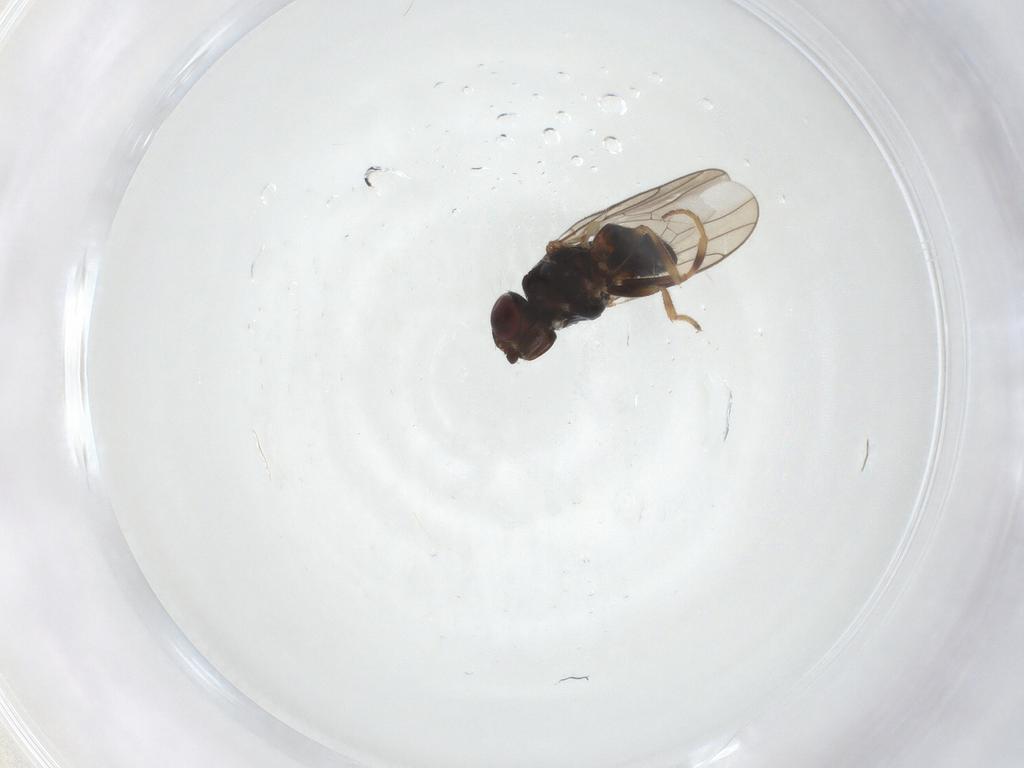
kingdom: Animalia
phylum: Arthropoda
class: Insecta
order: Diptera
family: Chloropidae
